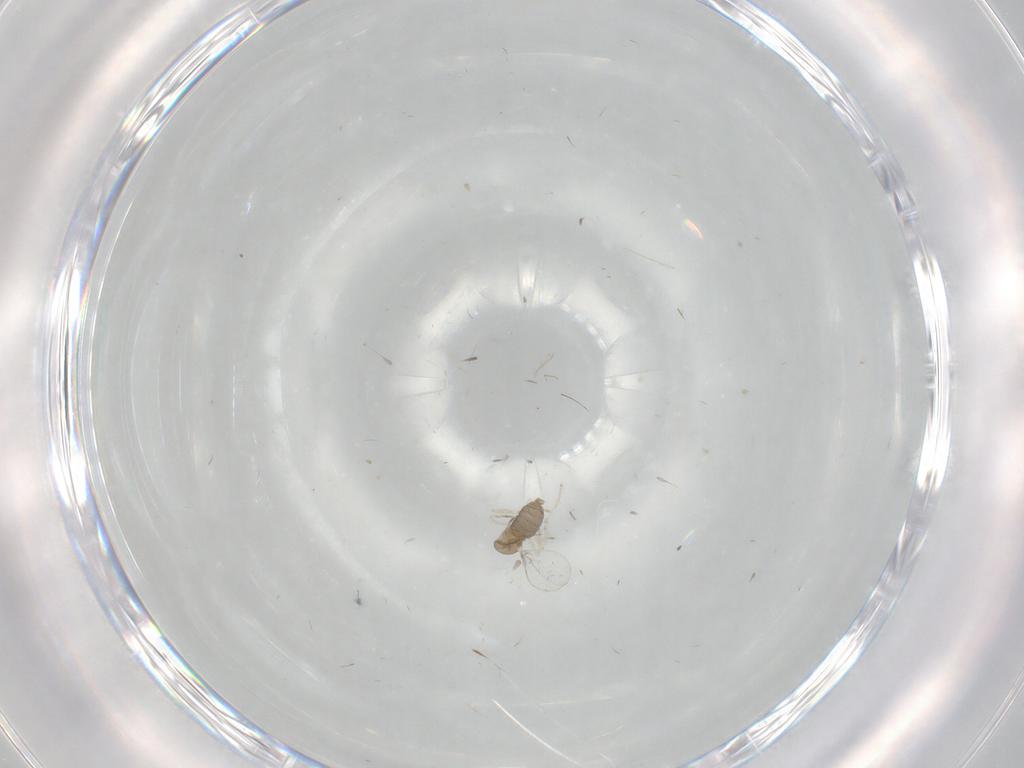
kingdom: Animalia
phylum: Arthropoda
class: Insecta
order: Diptera
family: Cecidomyiidae
